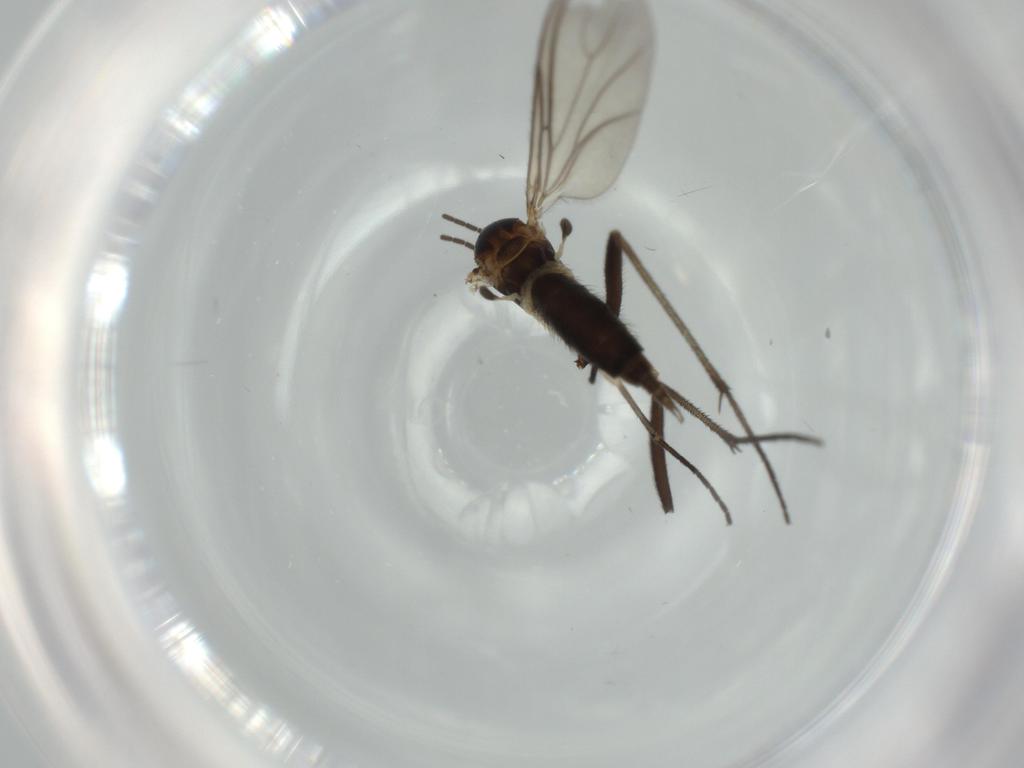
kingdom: Animalia
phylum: Arthropoda
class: Insecta
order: Diptera
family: Sciaridae
